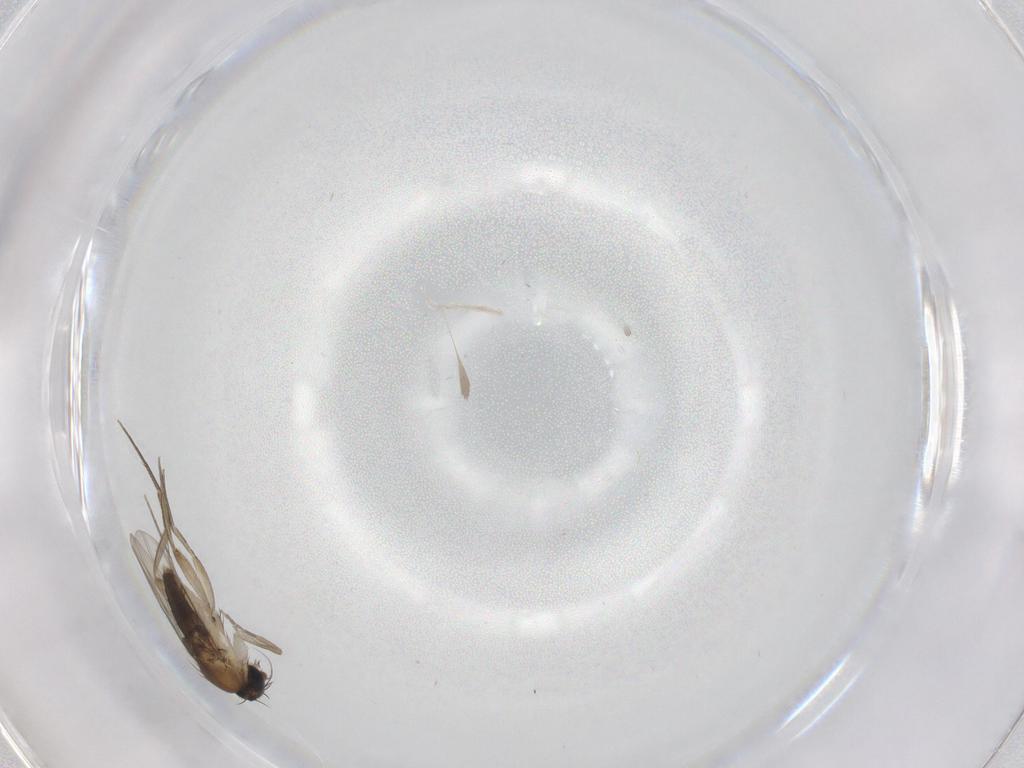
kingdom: Animalia
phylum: Arthropoda
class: Insecta
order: Diptera
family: Phoridae
